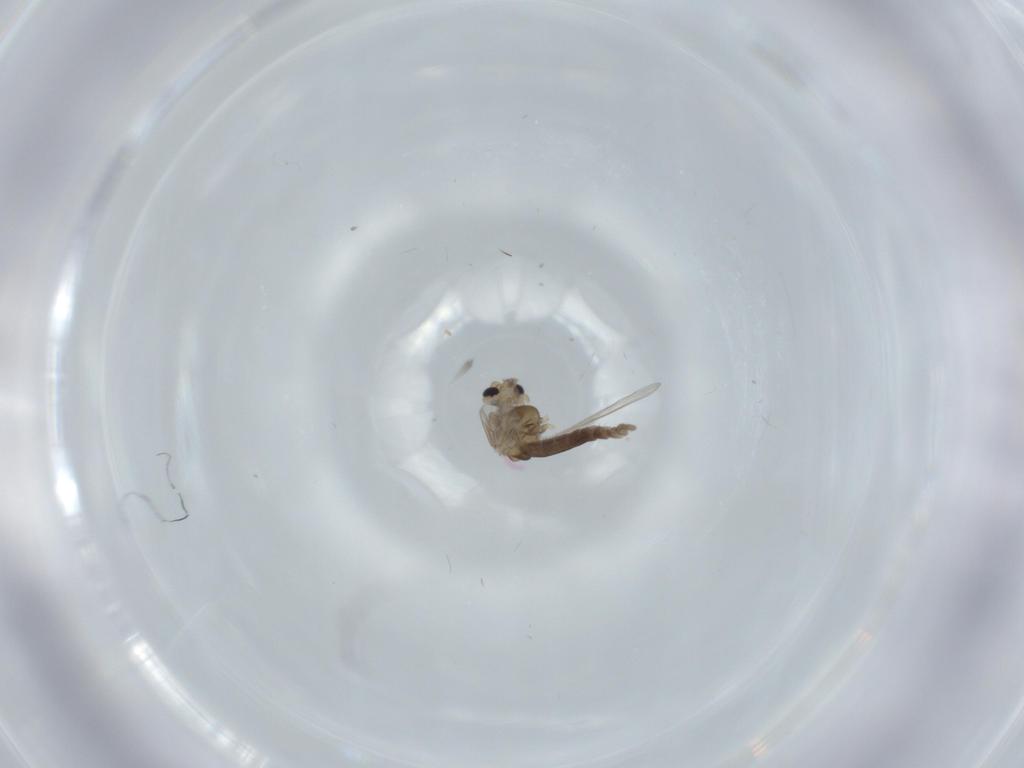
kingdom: Animalia
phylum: Arthropoda
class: Insecta
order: Diptera
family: Chironomidae
